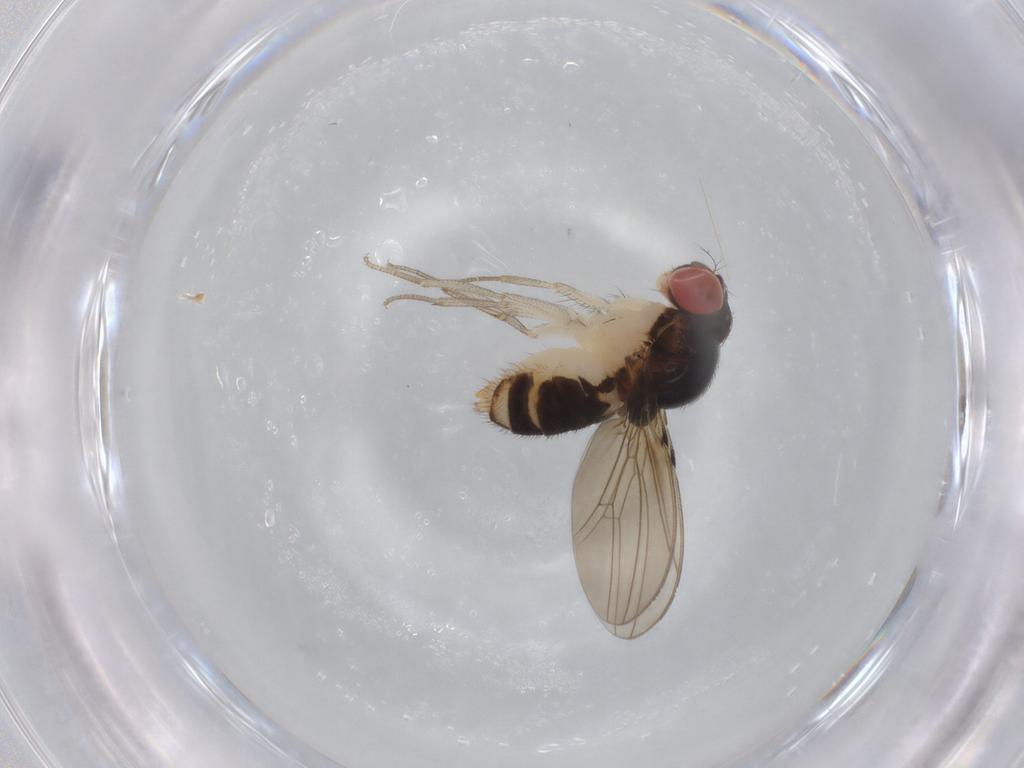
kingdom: Animalia
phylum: Arthropoda
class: Insecta
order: Diptera
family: Drosophilidae
